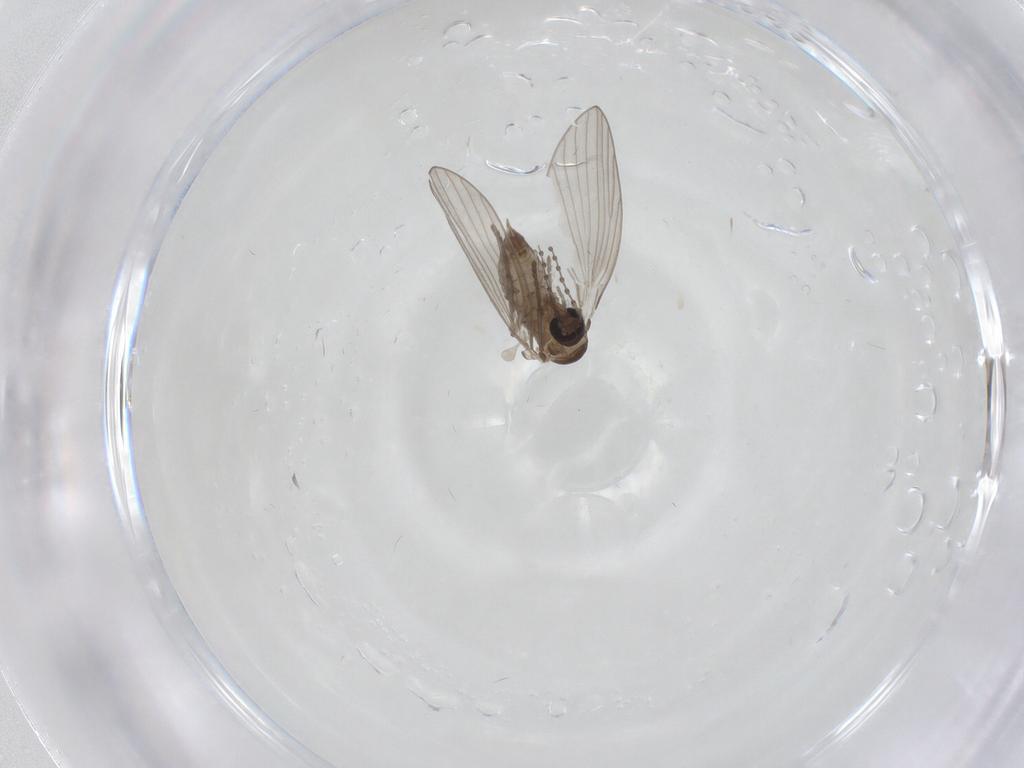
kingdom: Animalia
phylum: Arthropoda
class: Insecta
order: Diptera
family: Psychodidae
